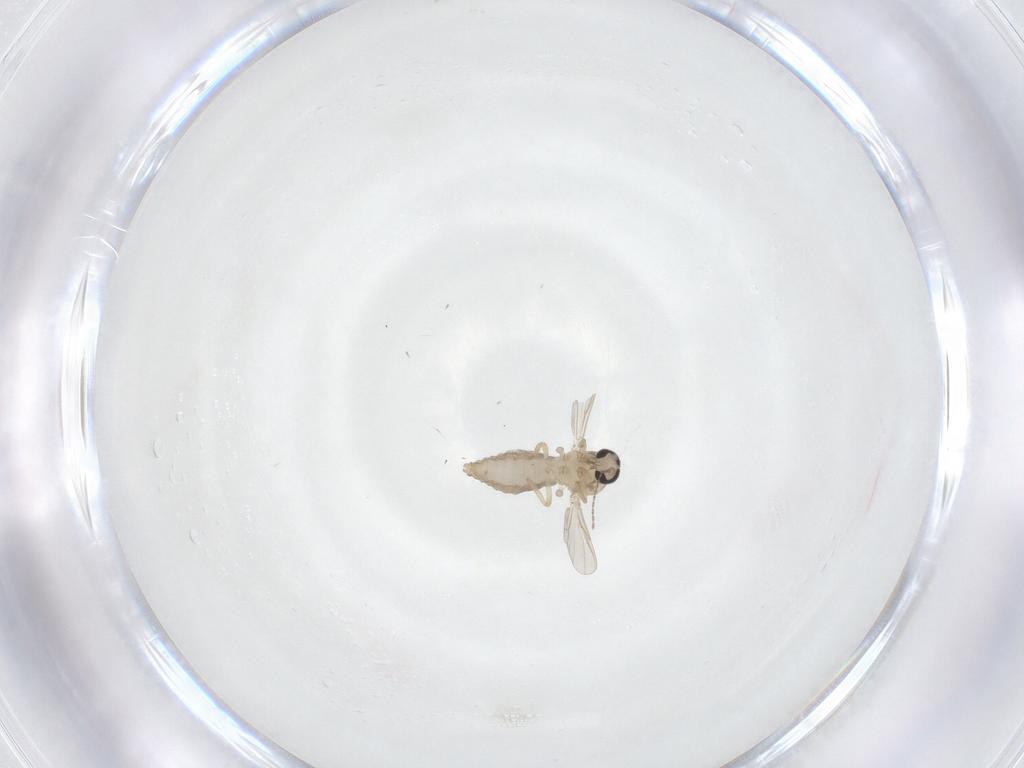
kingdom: Animalia
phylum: Arthropoda
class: Insecta
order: Diptera
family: Ceratopogonidae
